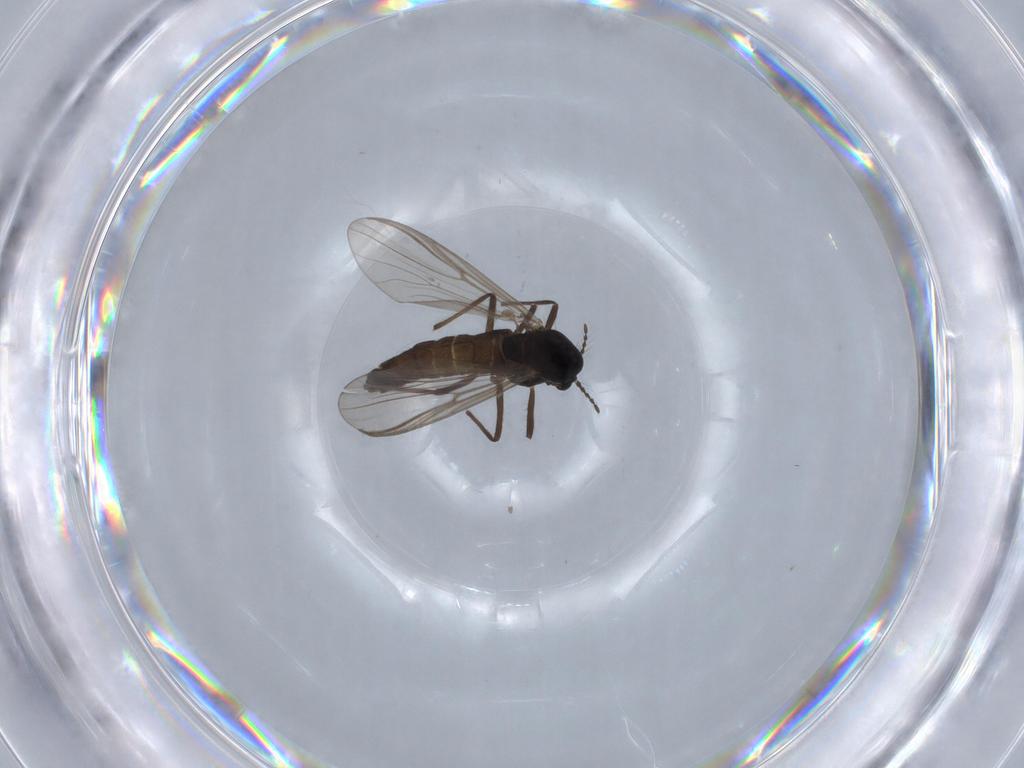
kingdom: Animalia
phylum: Arthropoda
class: Insecta
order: Diptera
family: Chironomidae
